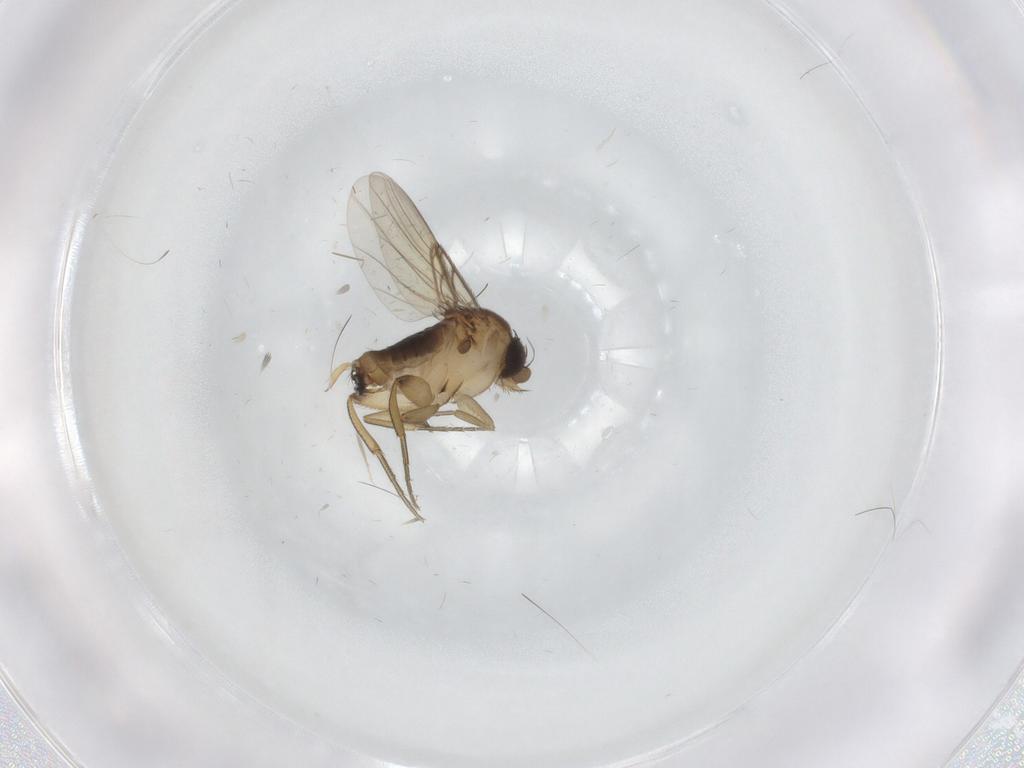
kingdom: Animalia
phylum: Arthropoda
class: Insecta
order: Diptera
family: Phoridae
